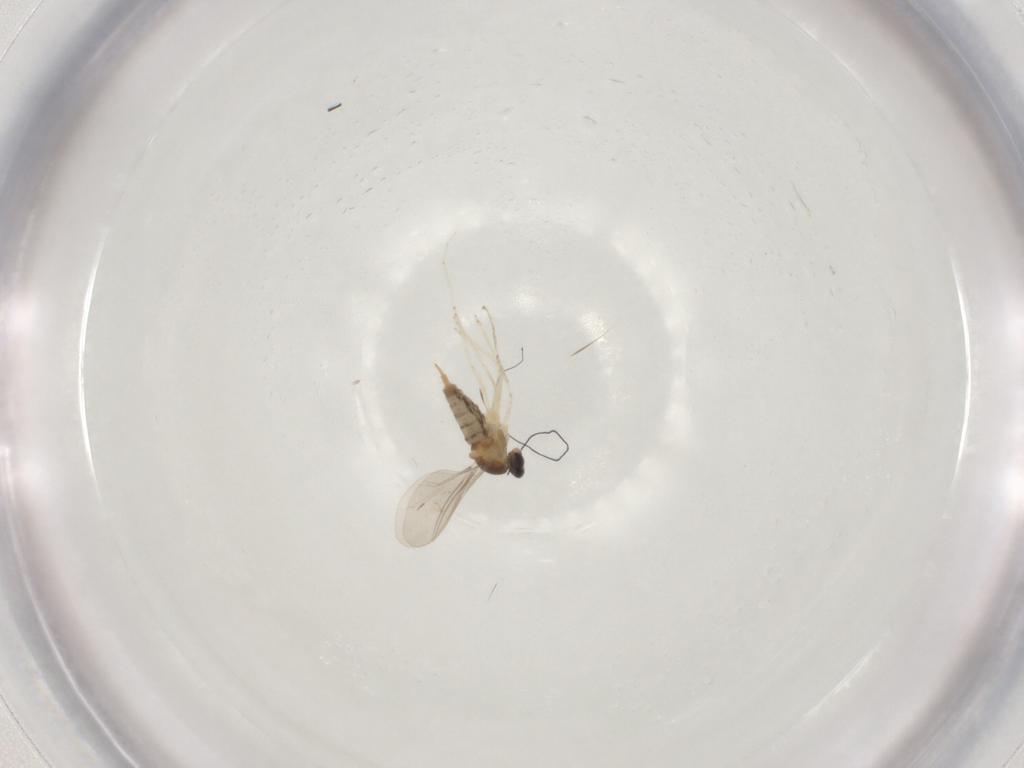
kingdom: Animalia
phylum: Arthropoda
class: Insecta
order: Diptera
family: Cecidomyiidae
